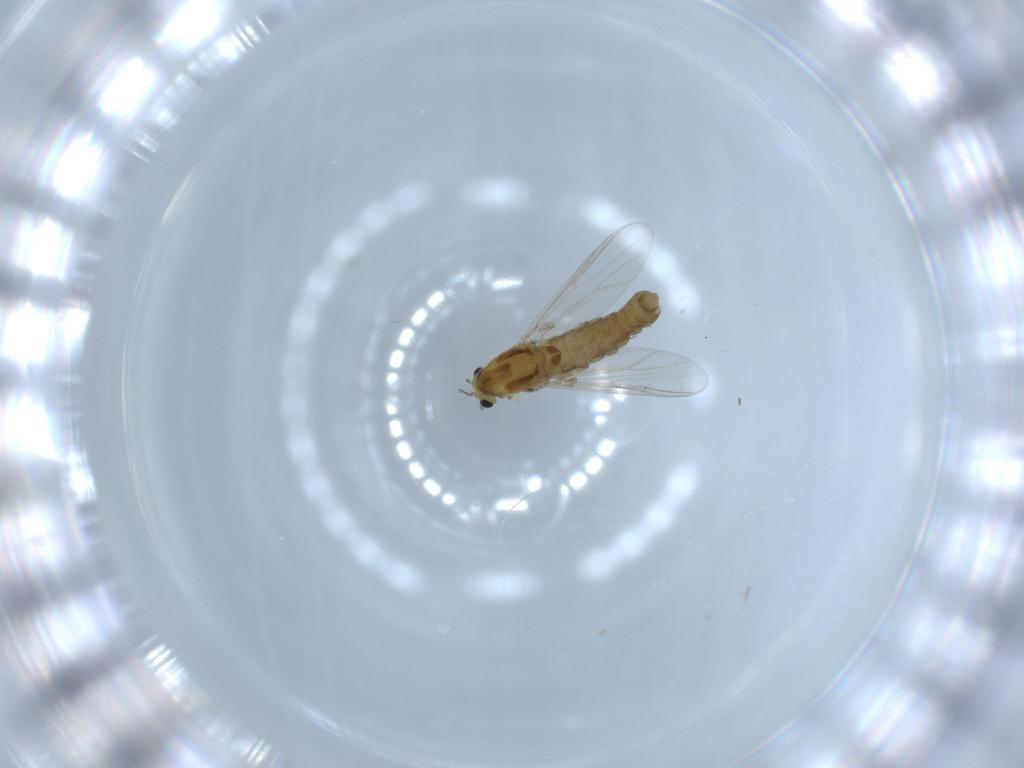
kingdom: Animalia
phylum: Arthropoda
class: Insecta
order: Diptera
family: Chironomidae
